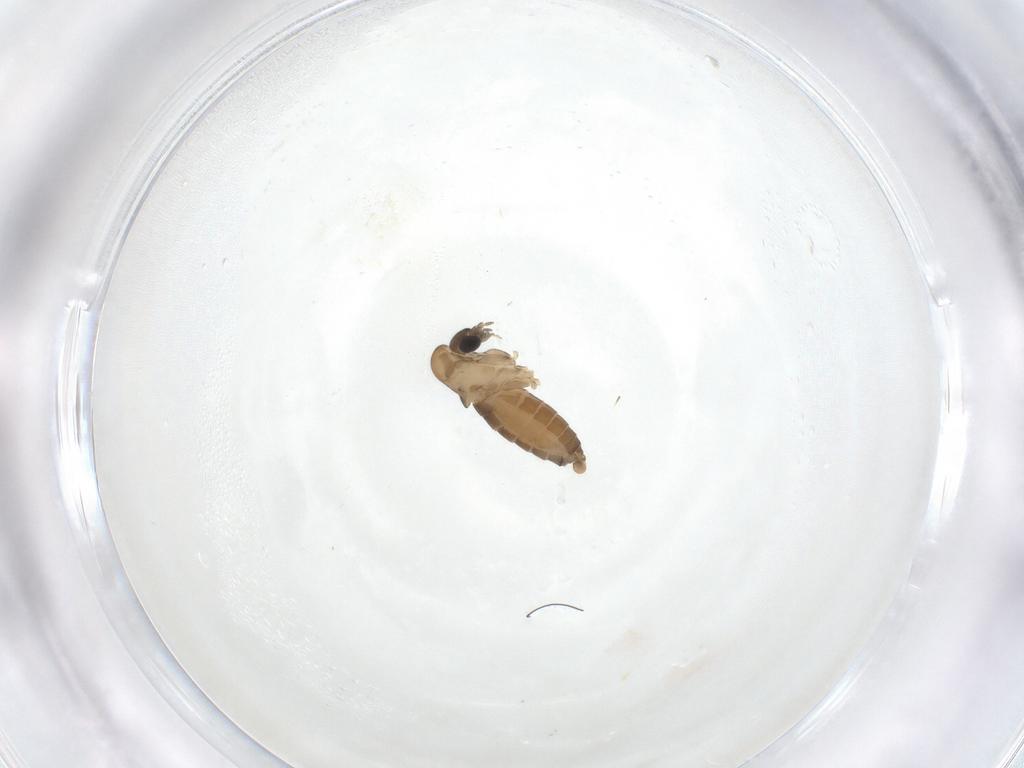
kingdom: Animalia
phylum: Arthropoda
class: Insecta
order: Diptera
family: Psychodidae
